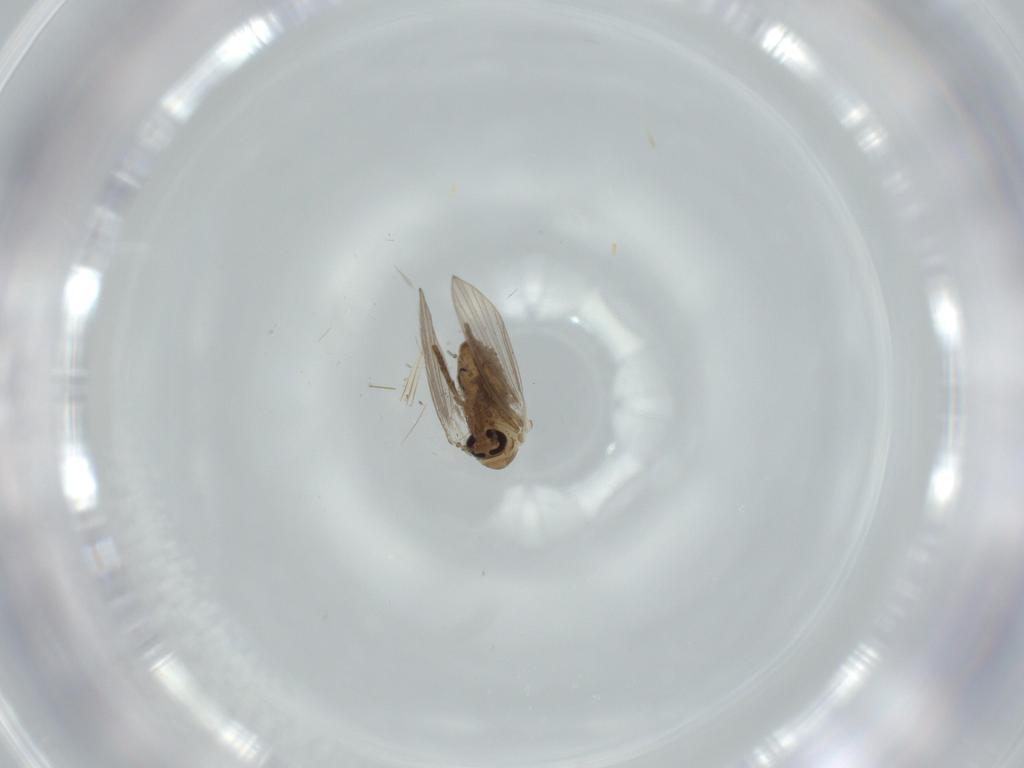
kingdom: Animalia
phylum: Arthropoda
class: Insecta
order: Diptera
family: Psychodidae
